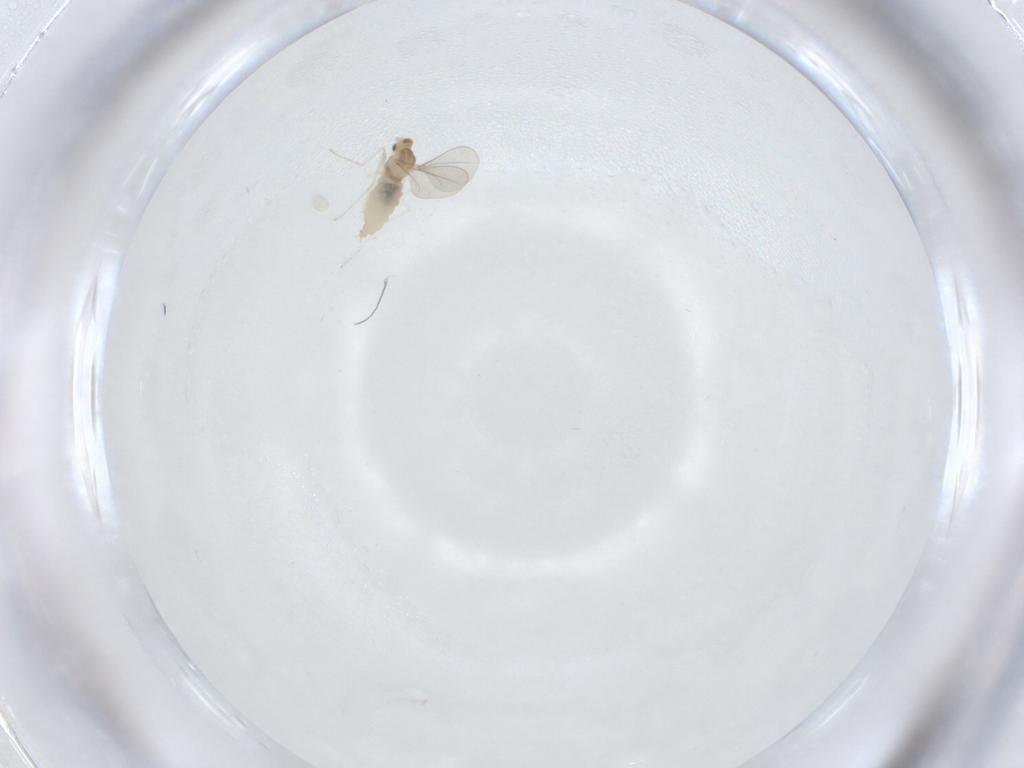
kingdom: Animalia
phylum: Arthropoda
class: Insecta
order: Diptera
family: Cecidomyiidae
